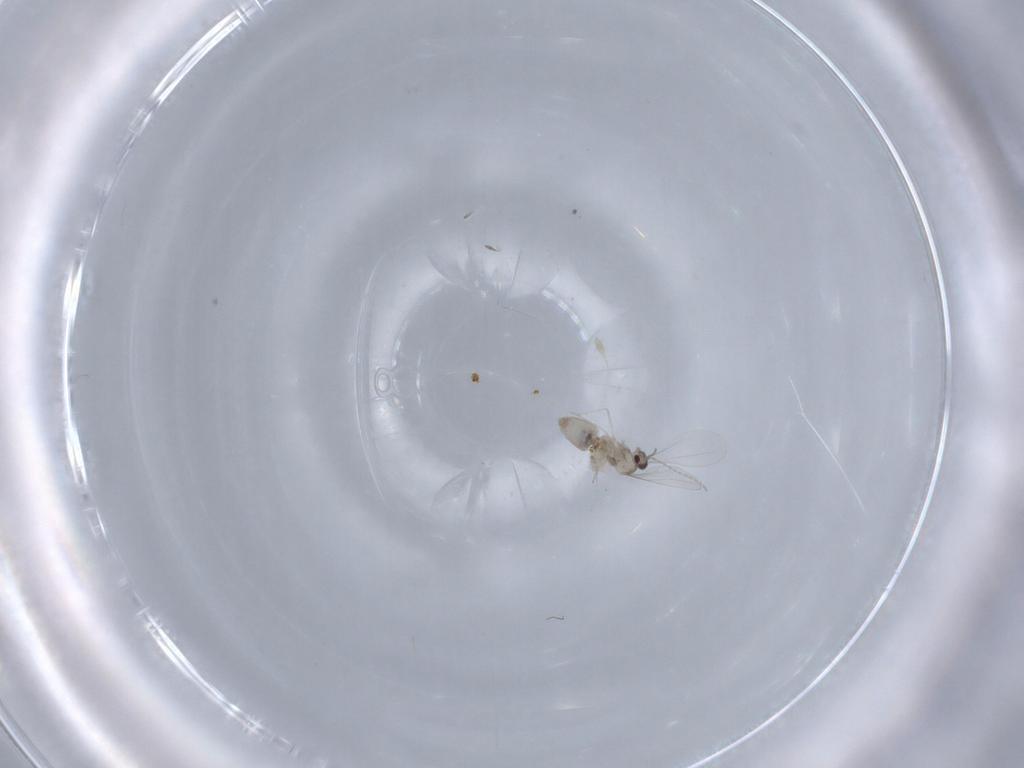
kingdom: Animalia
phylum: Arthropoda
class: Insecta
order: Diptera
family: Cecidomyiidae
